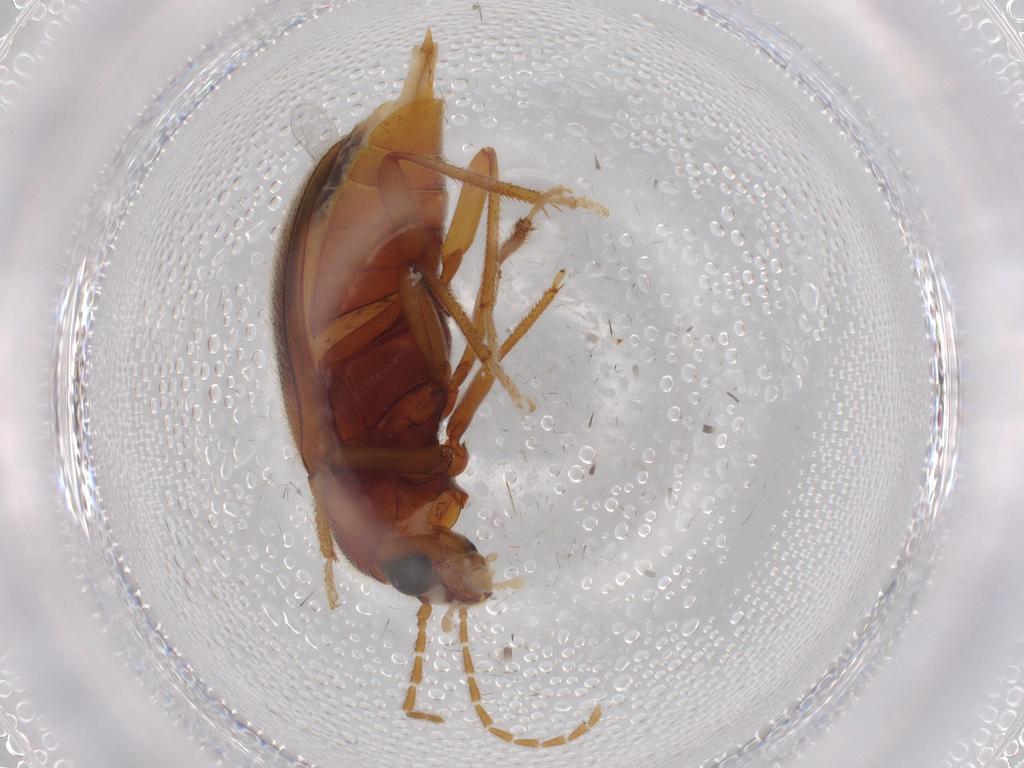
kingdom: Animalia
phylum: Arthropoda
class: Insecta
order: Coleoptera
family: Ptilodactylidae
